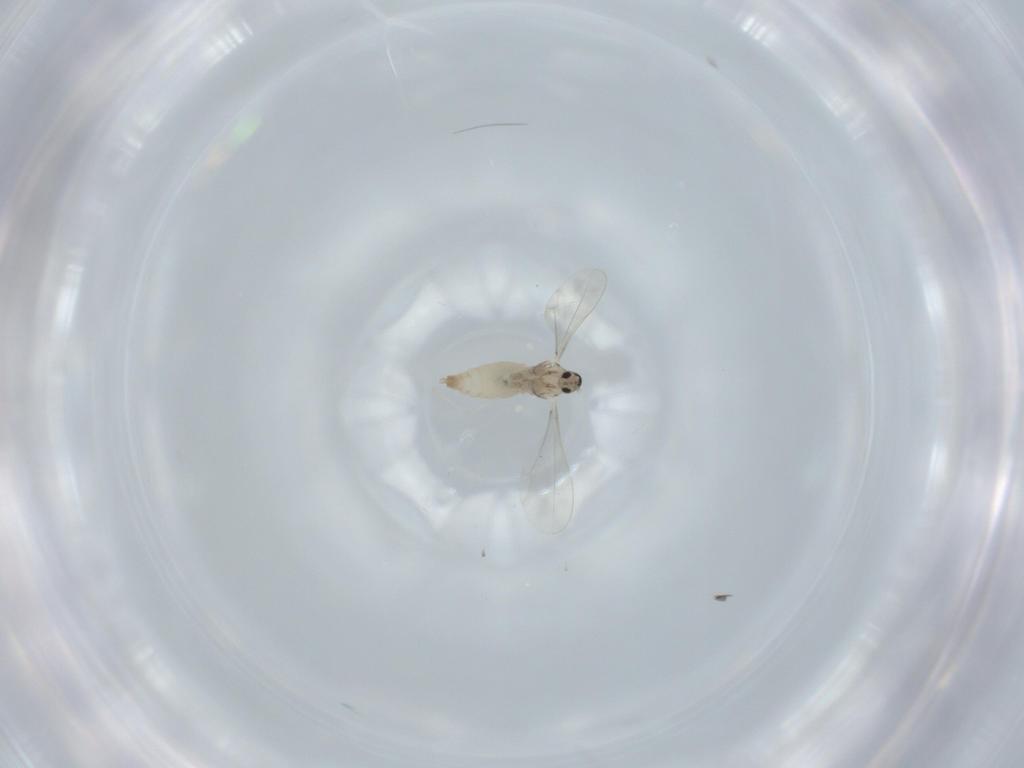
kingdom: Animalia
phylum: Arthropoda
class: Insecta
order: Diptera
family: Cecidomyiidae
